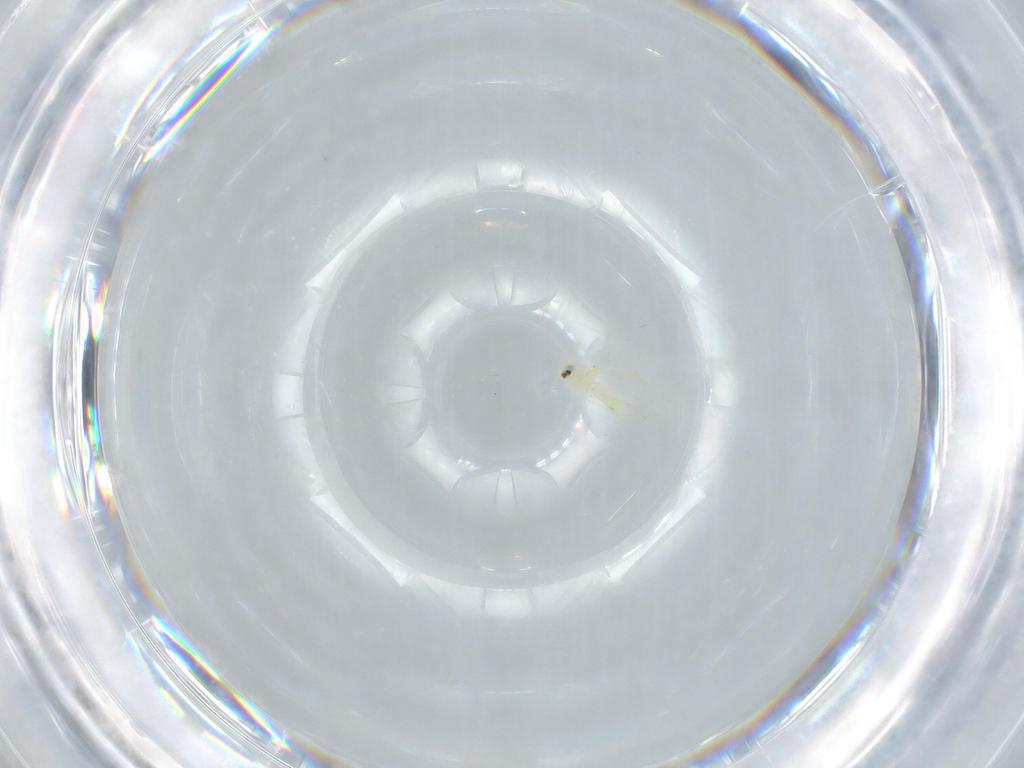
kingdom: Animalia
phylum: Arthropoda
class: Insecta
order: Hemiptera
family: Aleyrodidae
